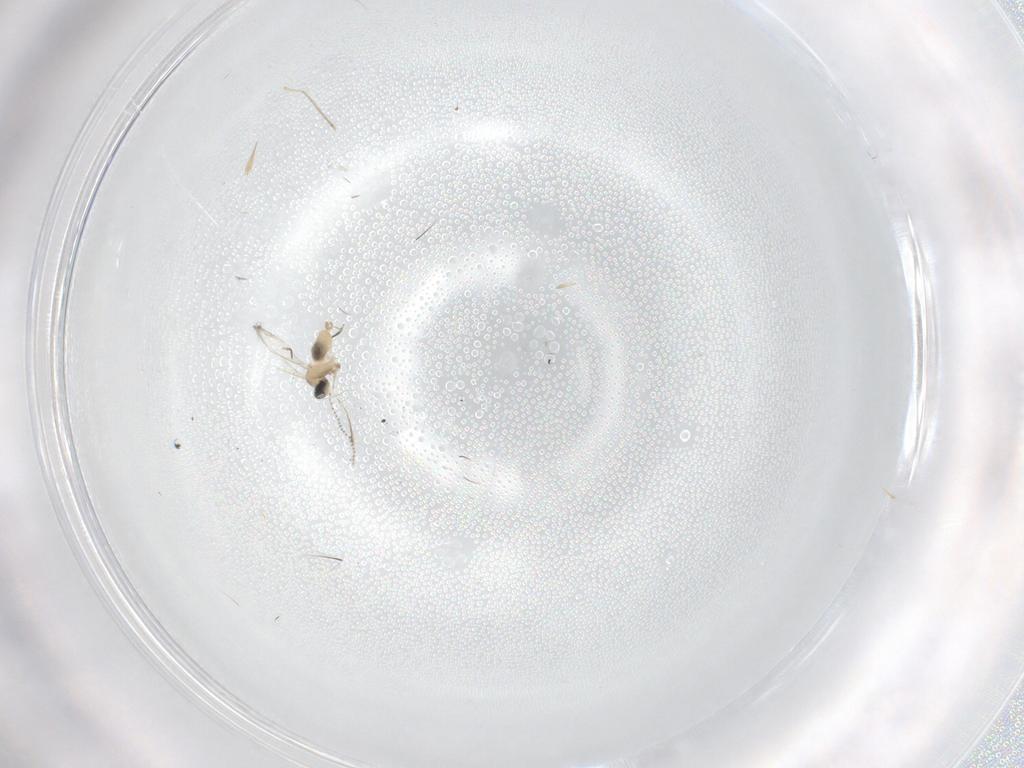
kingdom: Animalia
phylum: Arthropoda
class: Insecta
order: Diptera
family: Cecidomyiidae
